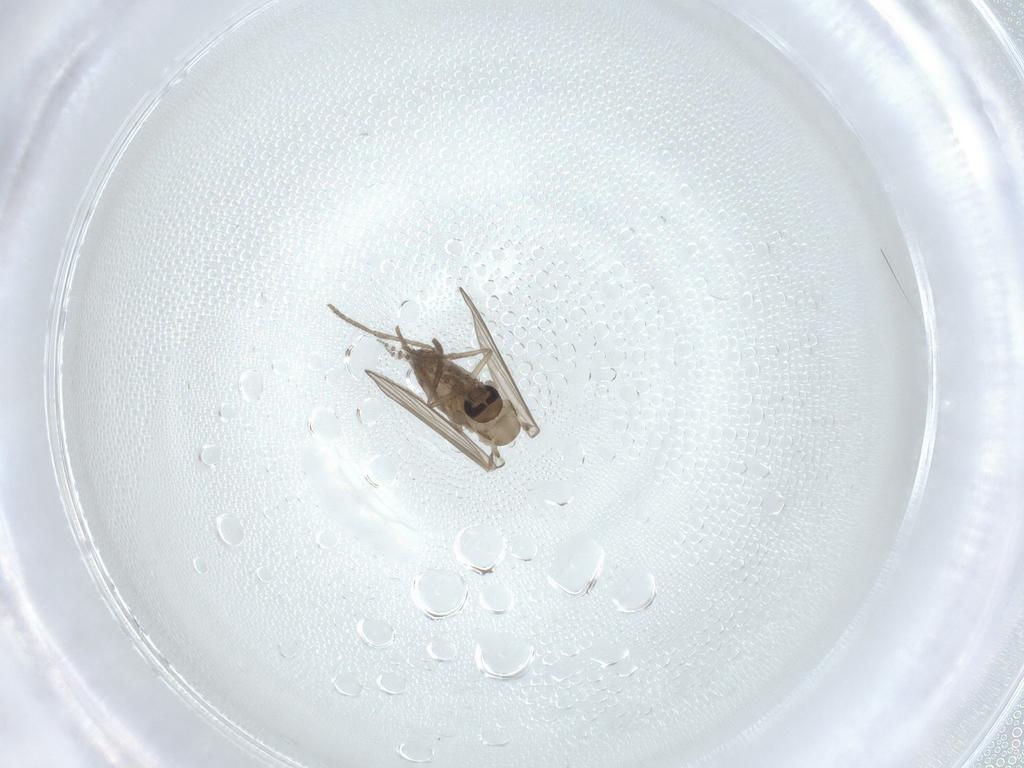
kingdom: Animalia
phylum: Arthropoda
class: Insecta
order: Diptera
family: Psychodidae
